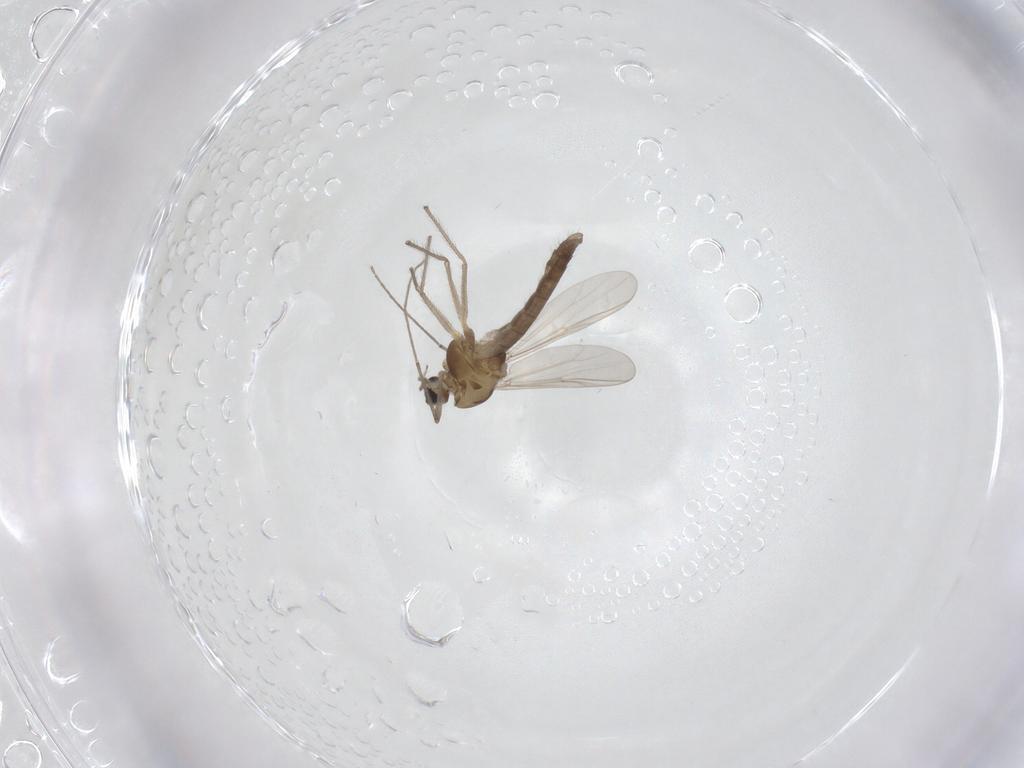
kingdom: Animalia
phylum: Arthropoda
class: Insecta
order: Diptera
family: Chironomidae
